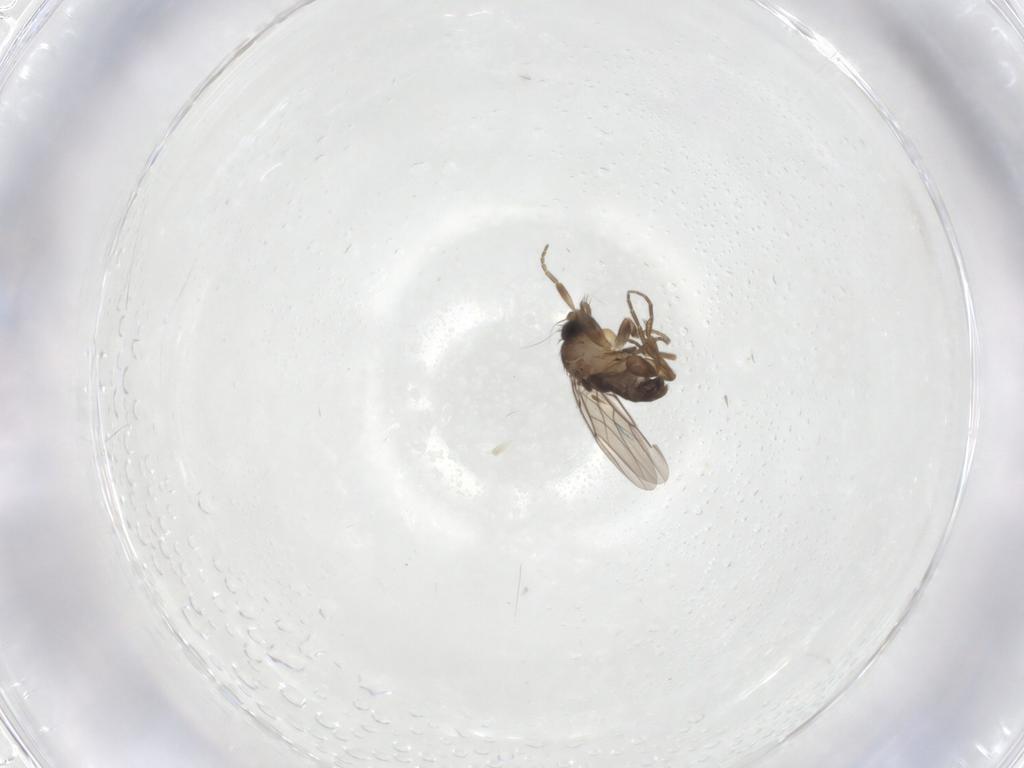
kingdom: Animalia
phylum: Arthropoda
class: Insecta
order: Diptera
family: Phoridae
